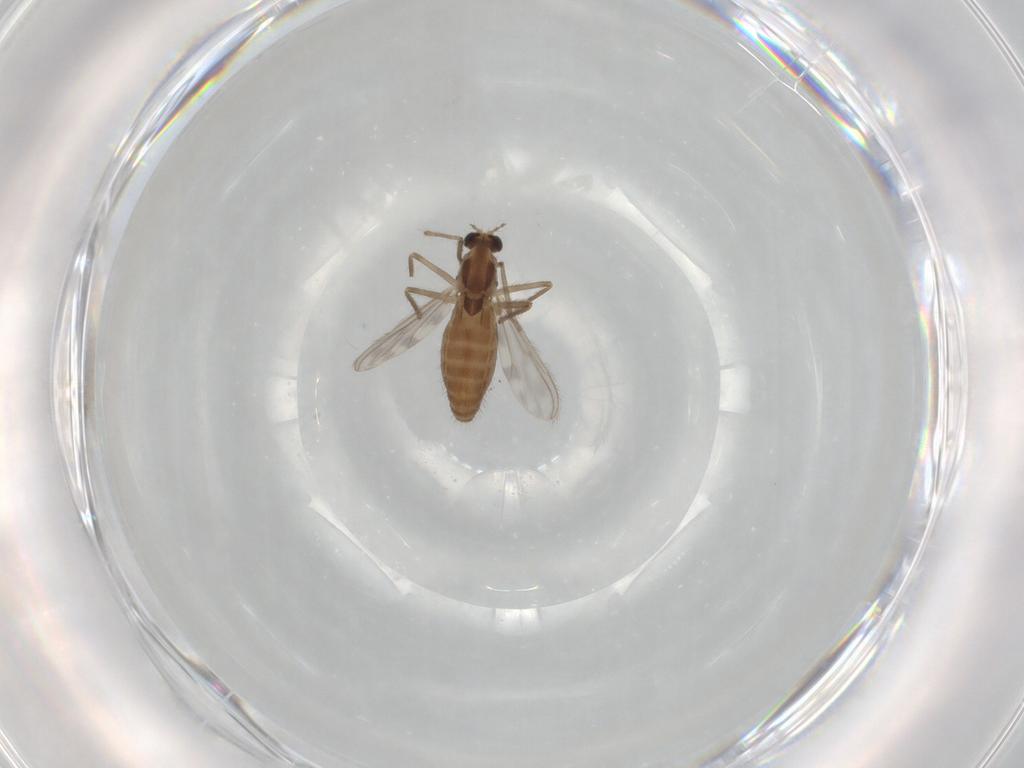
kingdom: Animalia
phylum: Arthropoda
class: Insecta
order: Diptera
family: Chironomidae
